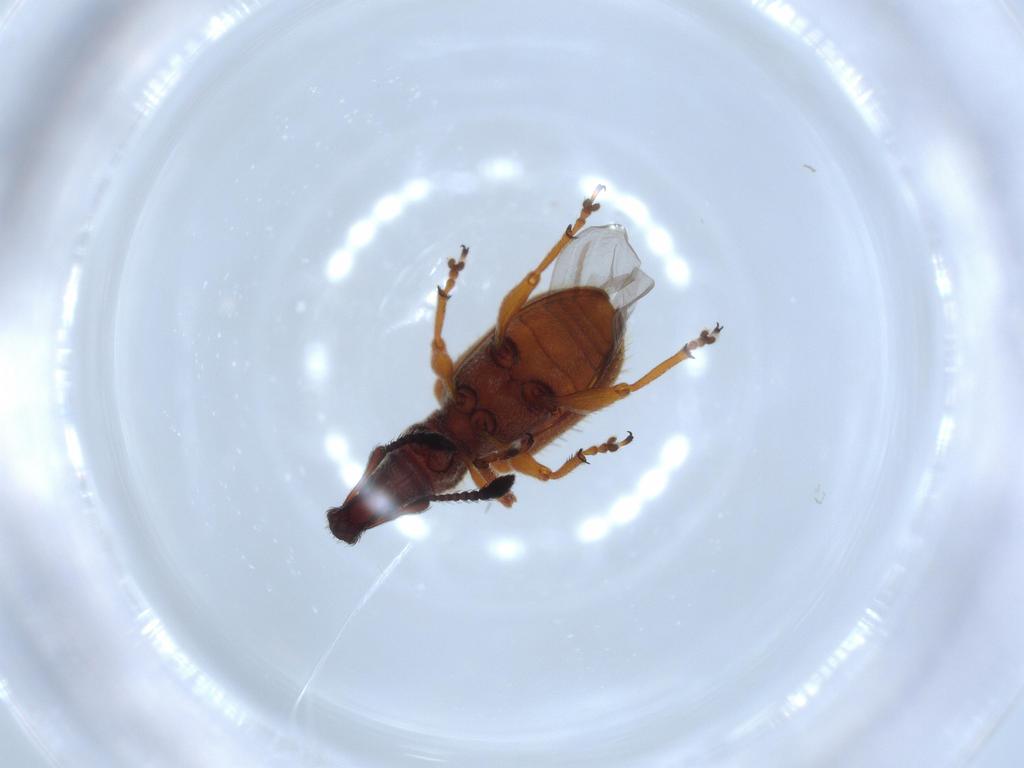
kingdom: Animalia
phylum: Arthropoda
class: Insecta
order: Coleoptera
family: Curculionidae
